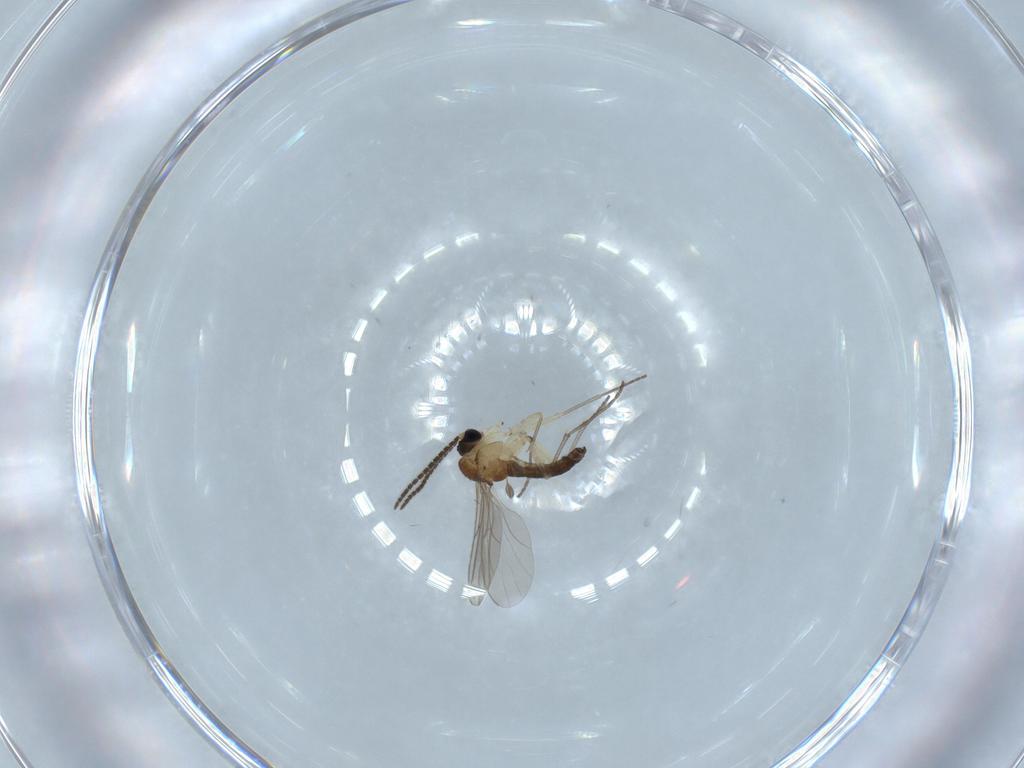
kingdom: Animalia
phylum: Arthropoda
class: Insecta
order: Diptera
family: Sciaridae
